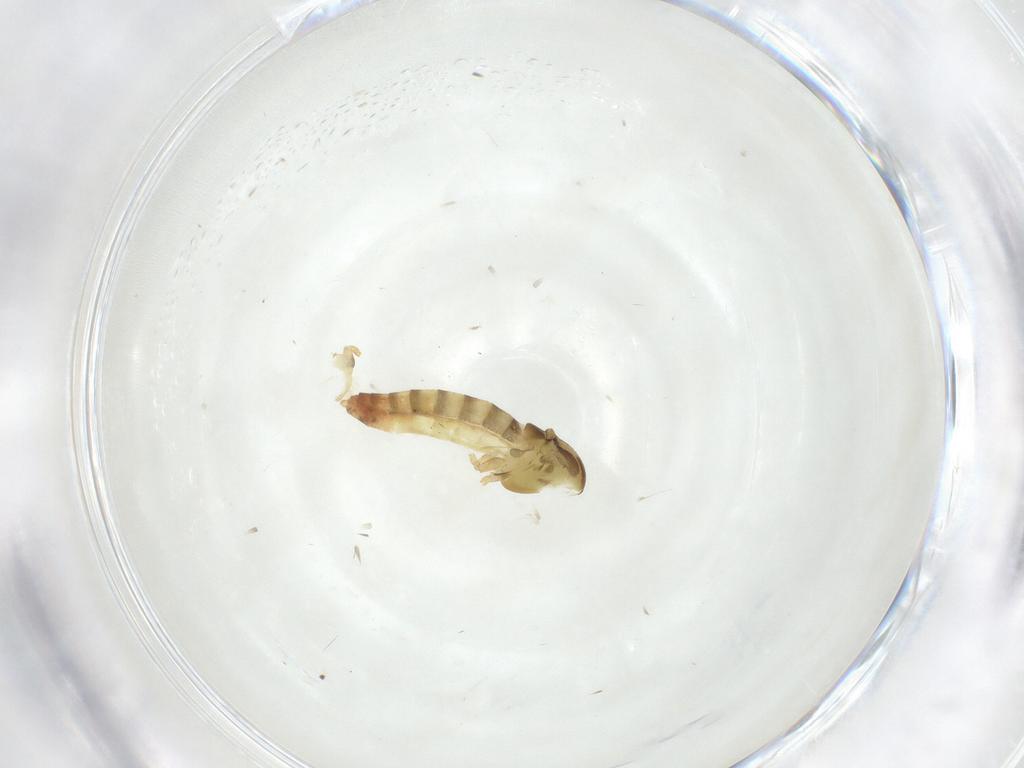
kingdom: Animalia
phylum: Arthropoda
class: Insecta
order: Diptera
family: Chironomidae
